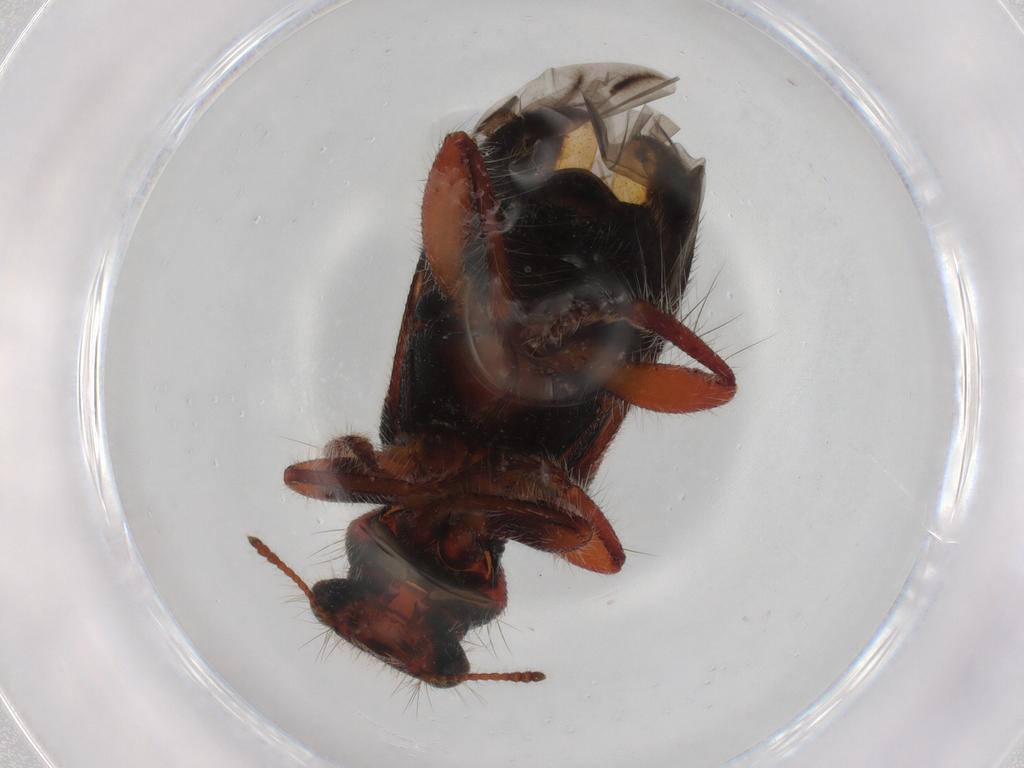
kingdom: Animalia
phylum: Arthropoda
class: Insecta
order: Coleoptera
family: Coccinellidae
